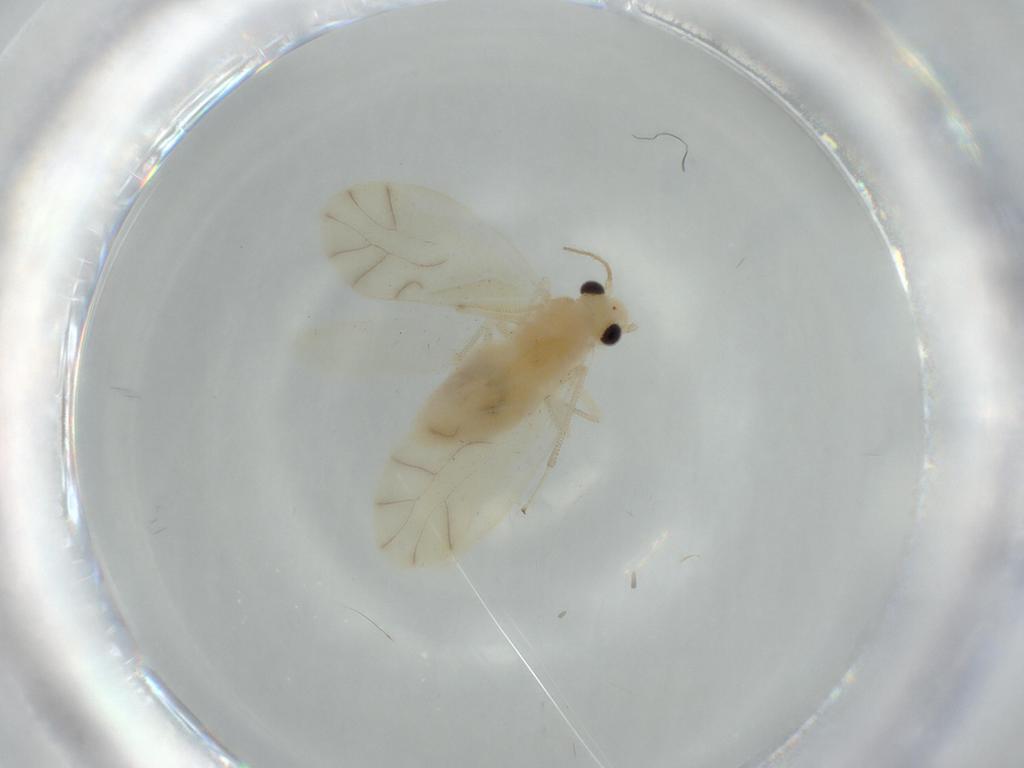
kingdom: Animalia
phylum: Arthropoda
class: Insecta
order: Psocodea
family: Caeciliusidae
